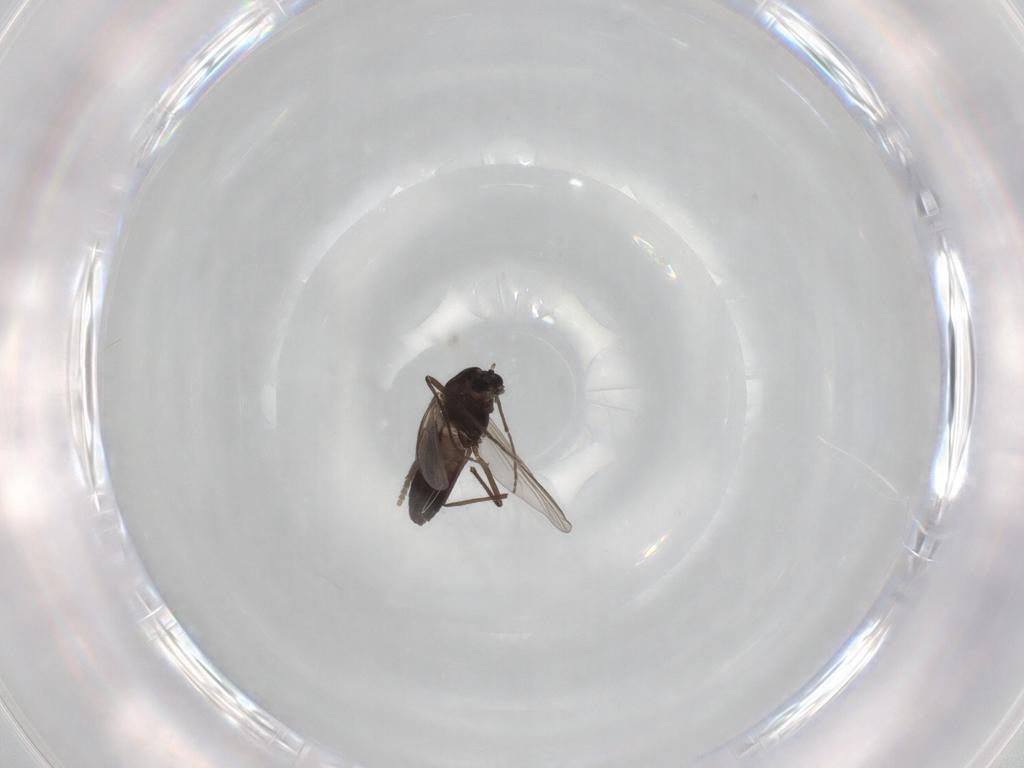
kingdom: Animalia
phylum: Arthropoda
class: Insecta
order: Diptera
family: Chironomidae
